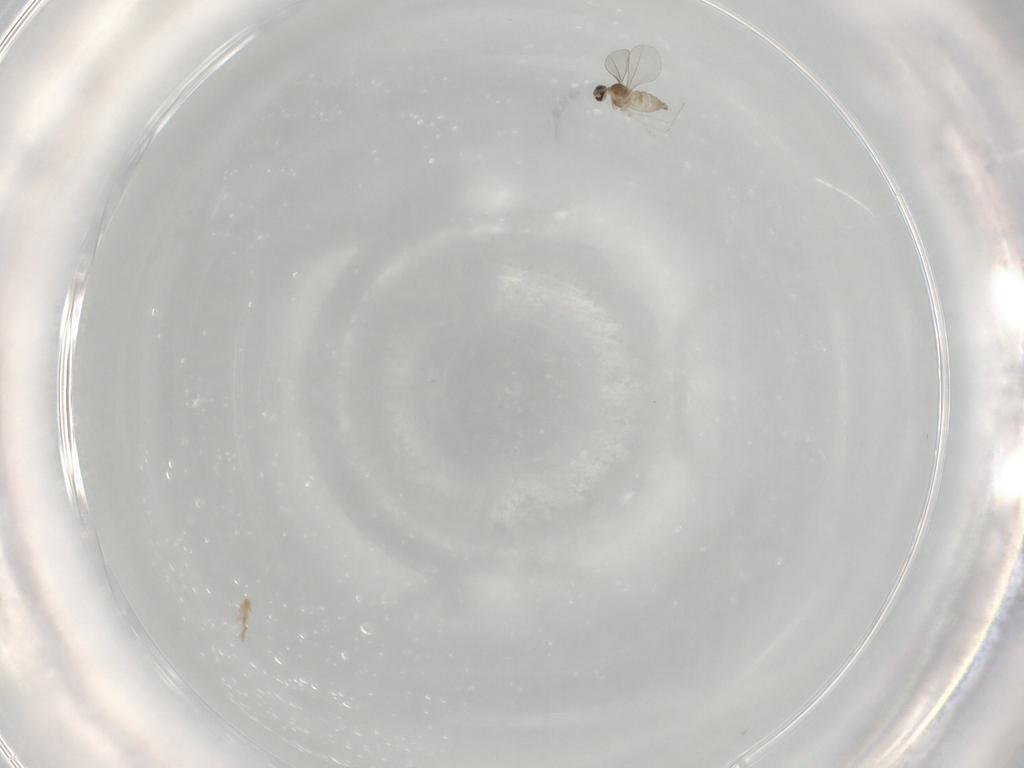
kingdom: Animalia
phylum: Arthropoda
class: Insecta
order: Diptera
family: Cecidomyiidae
